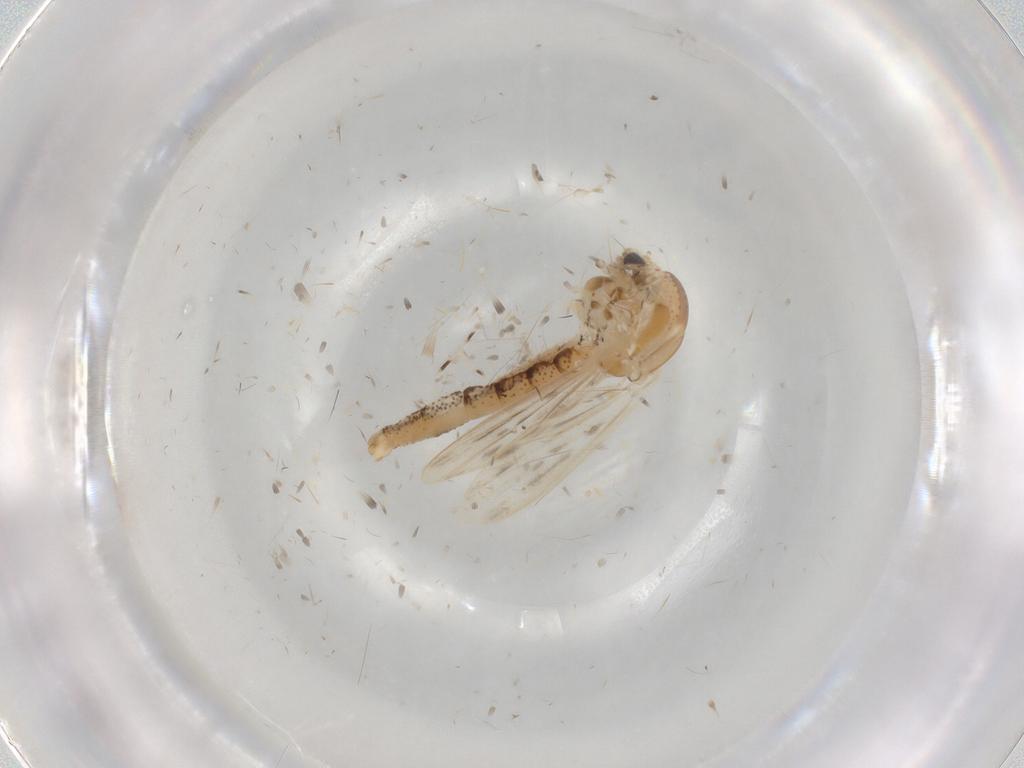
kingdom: Animalia
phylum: Arthropoda
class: Insecta
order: Diptera
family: Chaoboridae
